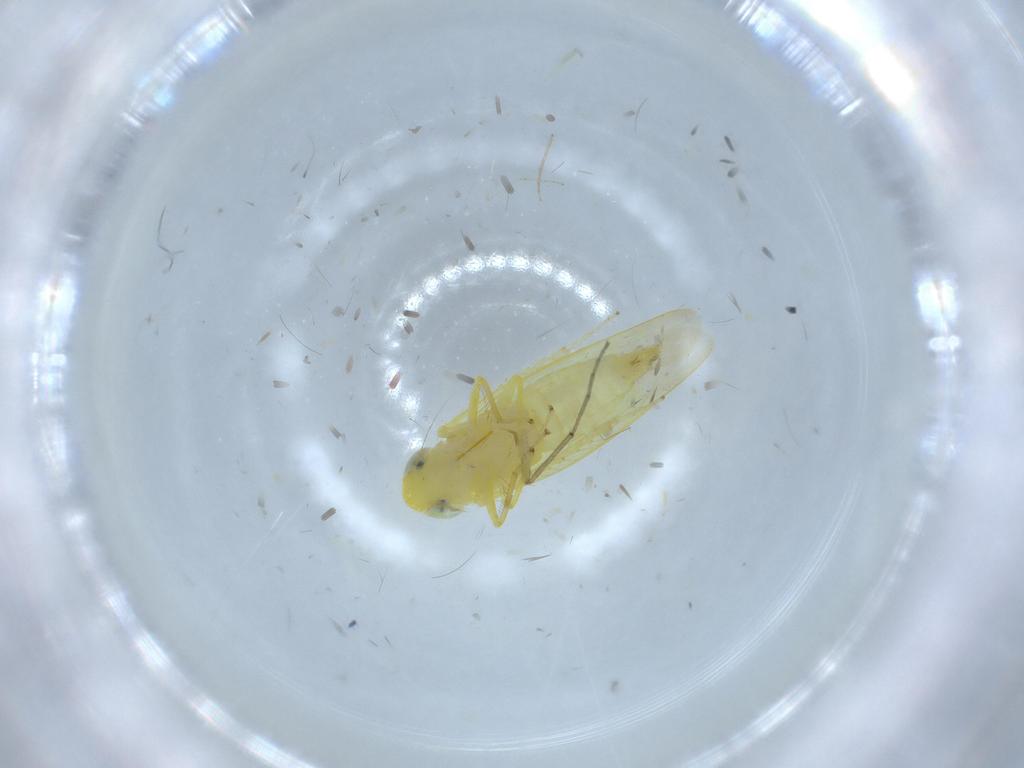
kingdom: Animalia
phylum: Arthropoda
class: Insecta
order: Hemiptera
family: Cicadellidae
